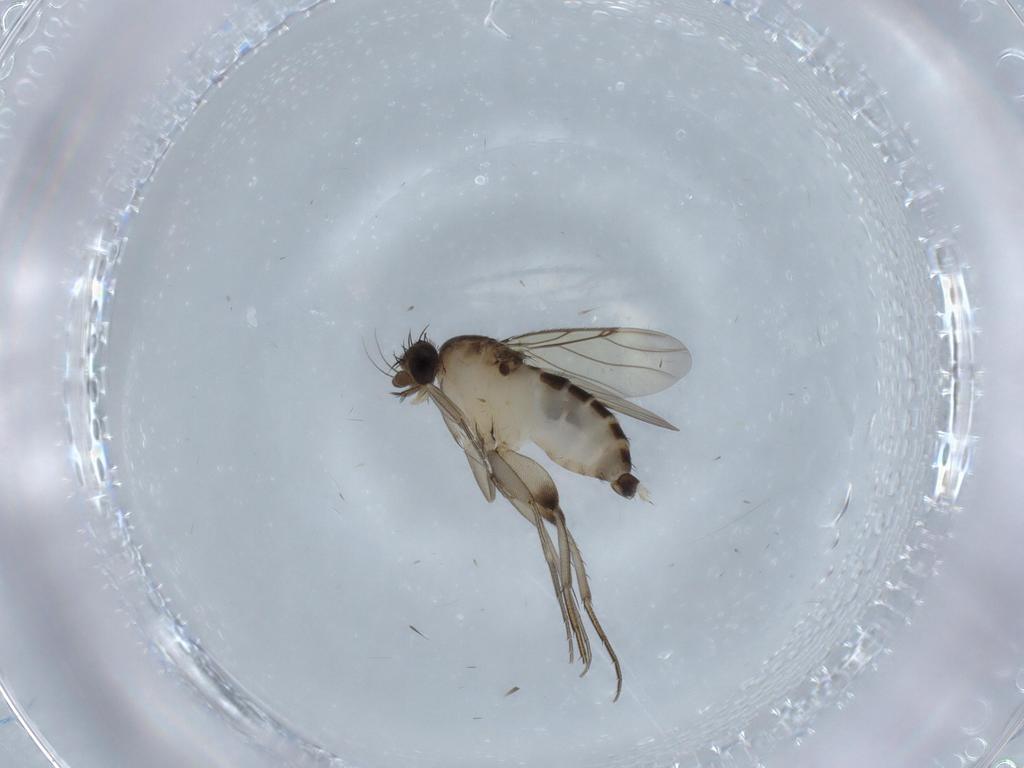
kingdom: Animalia
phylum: Arthropoda
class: Insecta
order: Diptera
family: Phoridae
